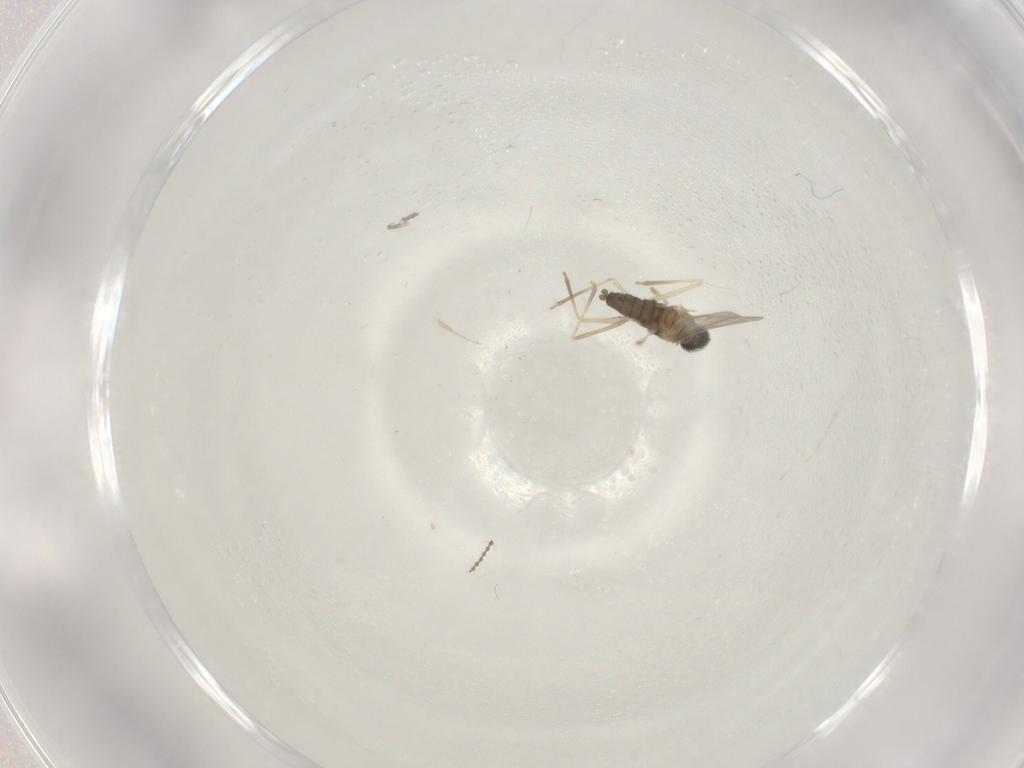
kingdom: Animalia
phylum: Arthropoda
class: Insecta
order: Diptera
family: Cecidomyiidae
